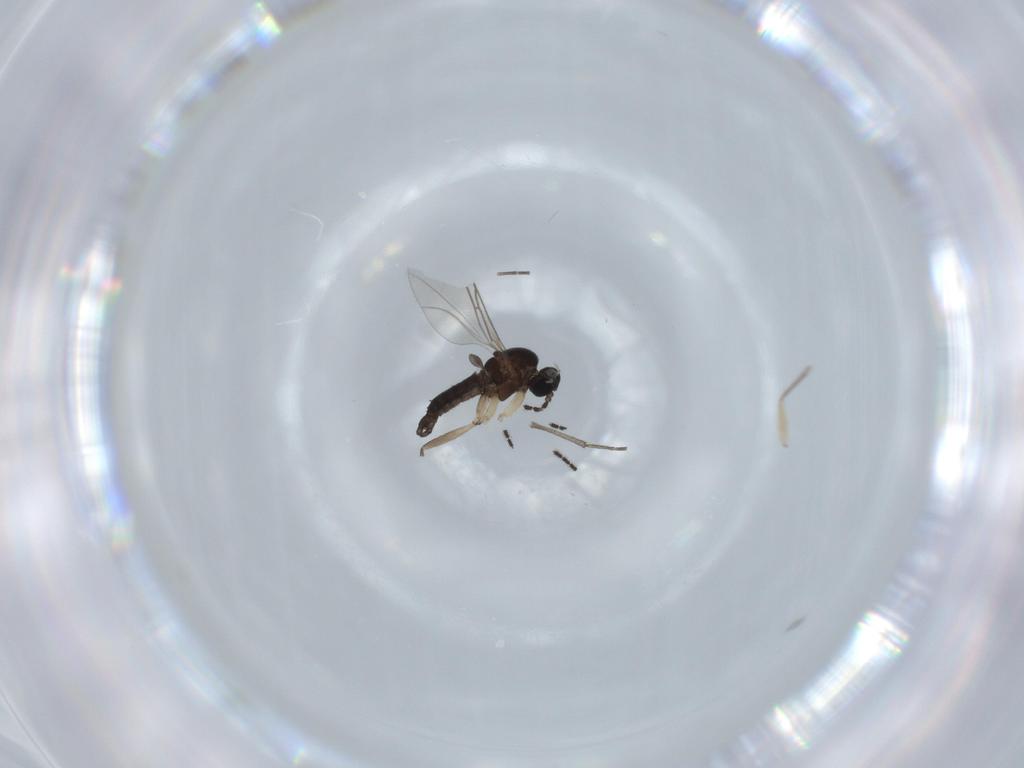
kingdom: Animalia
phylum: Arthropoda
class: Insecta
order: Diptera
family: Sciaridae
